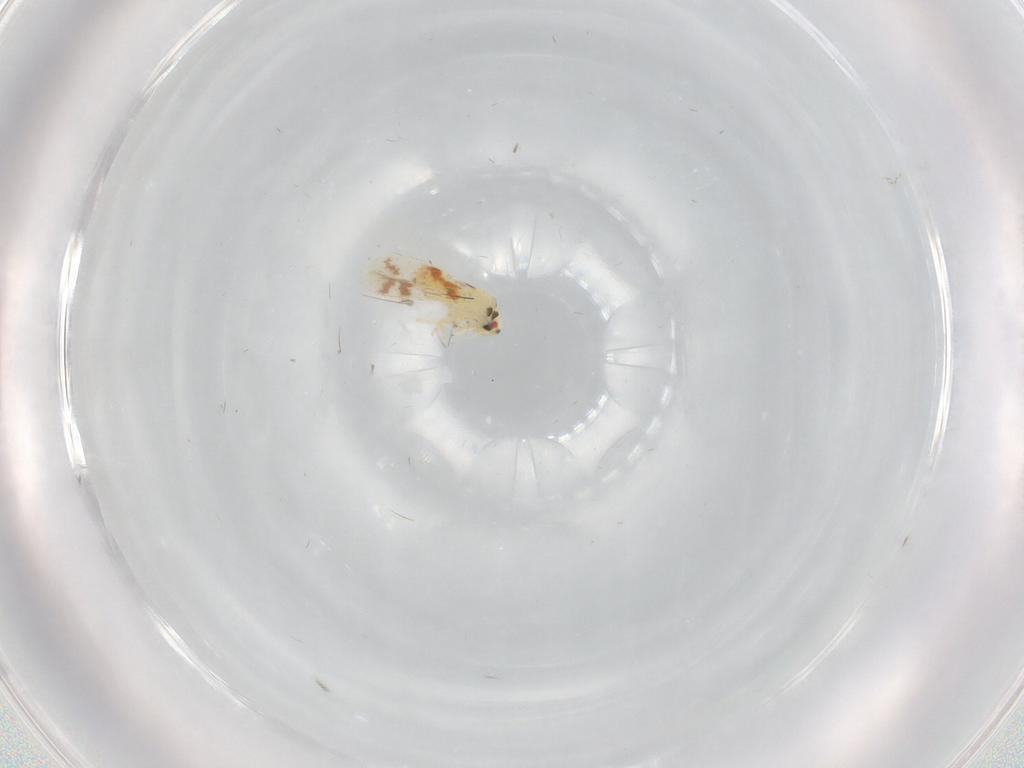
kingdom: Animalia
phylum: Arthropoda
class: Insecta
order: Hemiptera
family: Aleyrodidae
